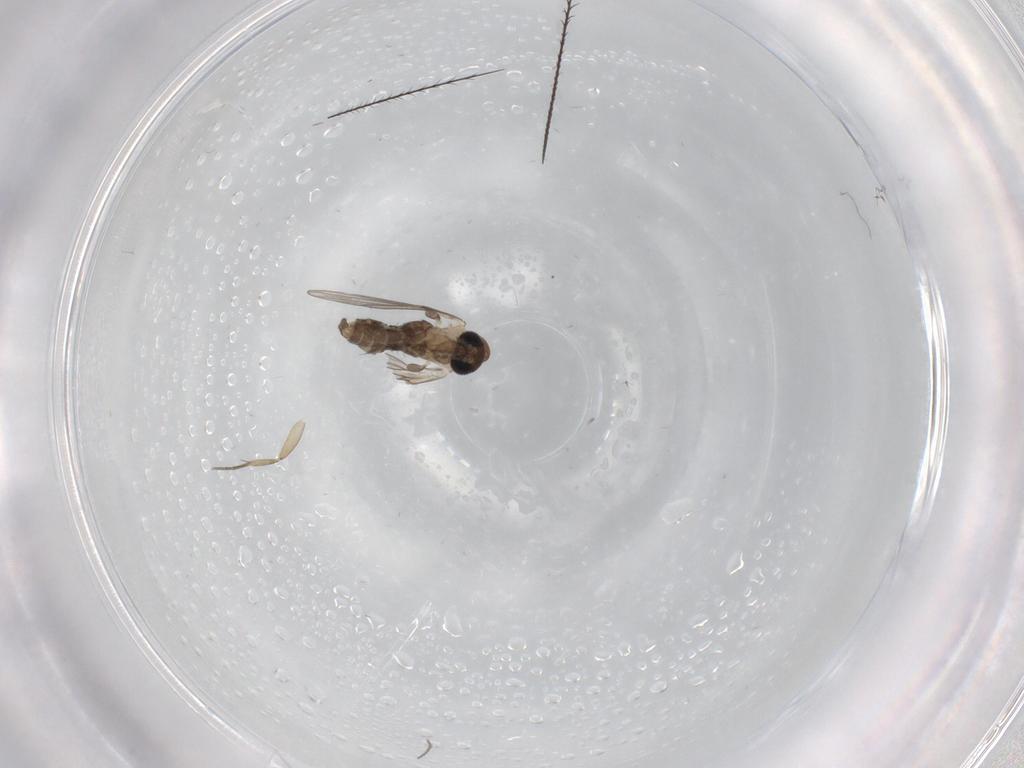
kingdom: Animalia
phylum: Arthropoda
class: Insecta
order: Diptera
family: Psychodidae
